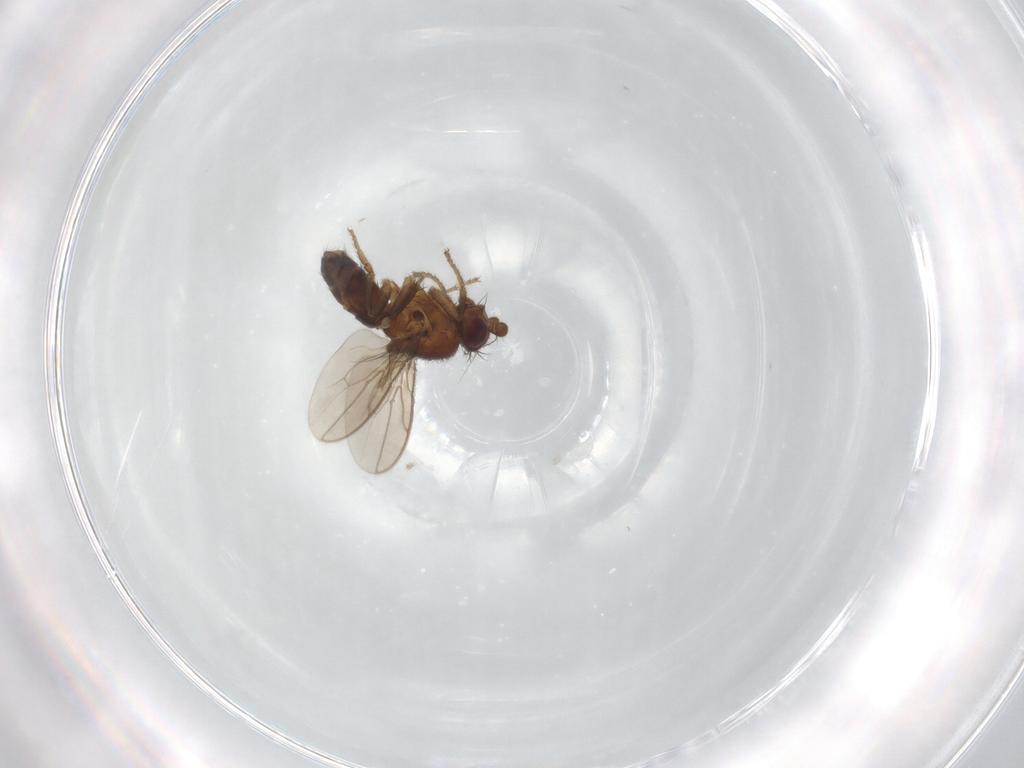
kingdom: Animalia
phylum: Arthropoda
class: Insecta
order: Diptera
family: Sphaeroceridae
